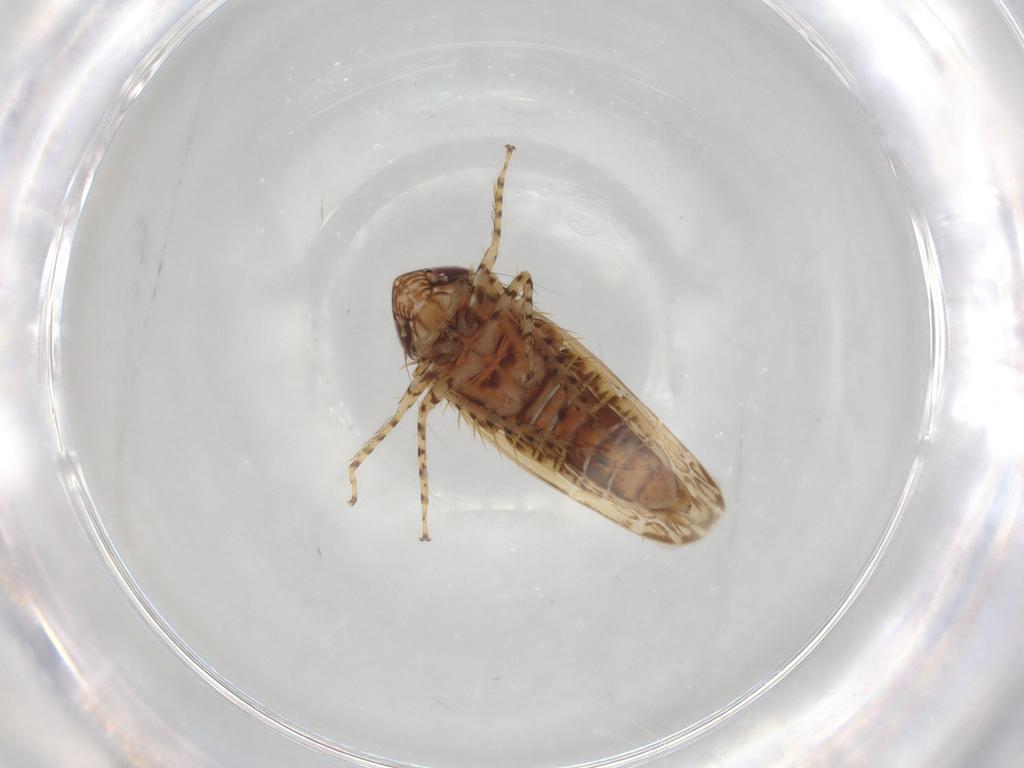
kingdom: Animalia
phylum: Arthropoda
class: Insecta
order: Hemiptera
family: Cicadellidae
